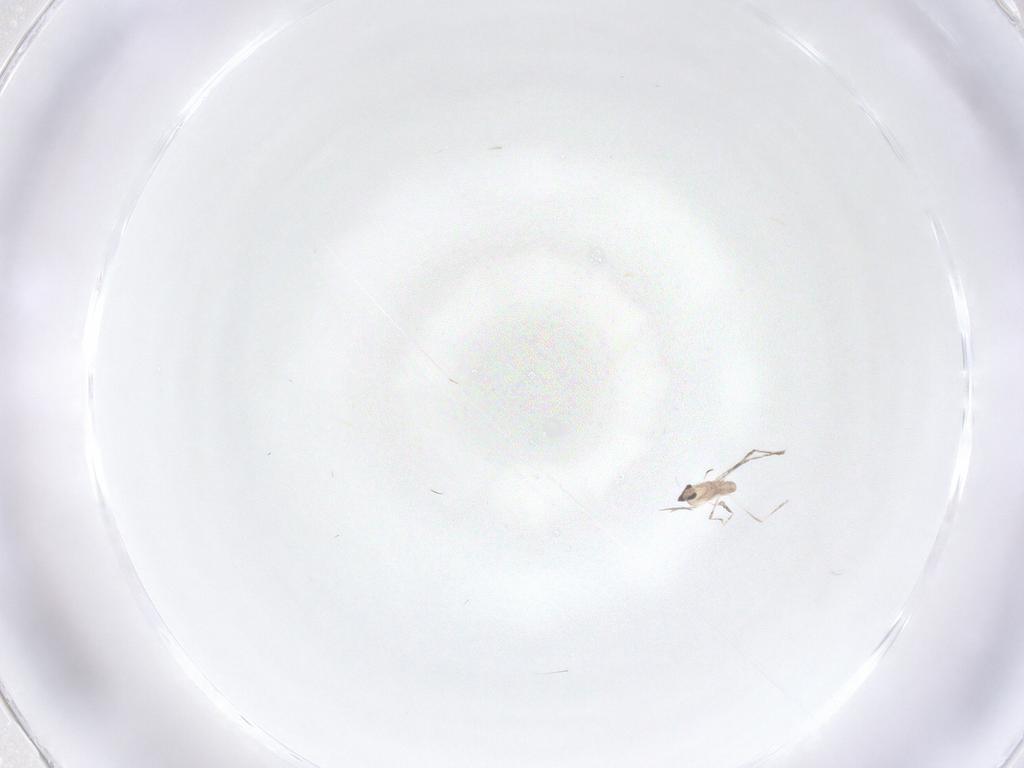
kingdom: Animalia
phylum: Arthropoda
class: Insecta
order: Diptera
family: Cecidomyiidae
